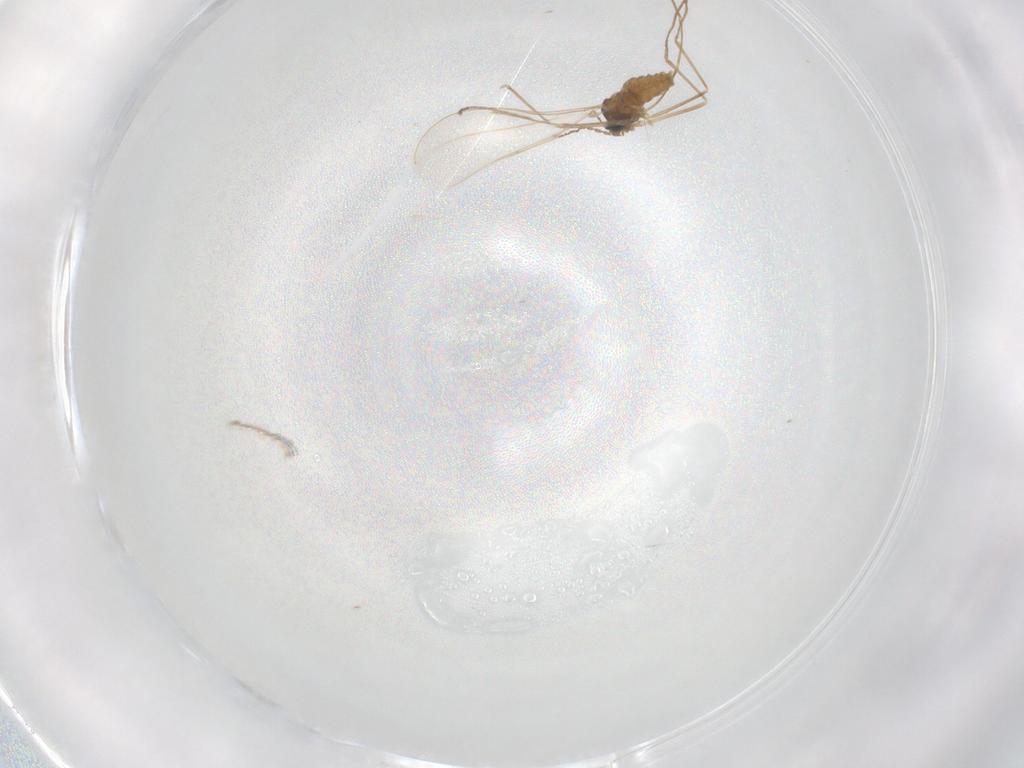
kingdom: Animalia
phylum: Arthropoda
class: Insecta
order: Diptera
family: Cecidomyiidae
